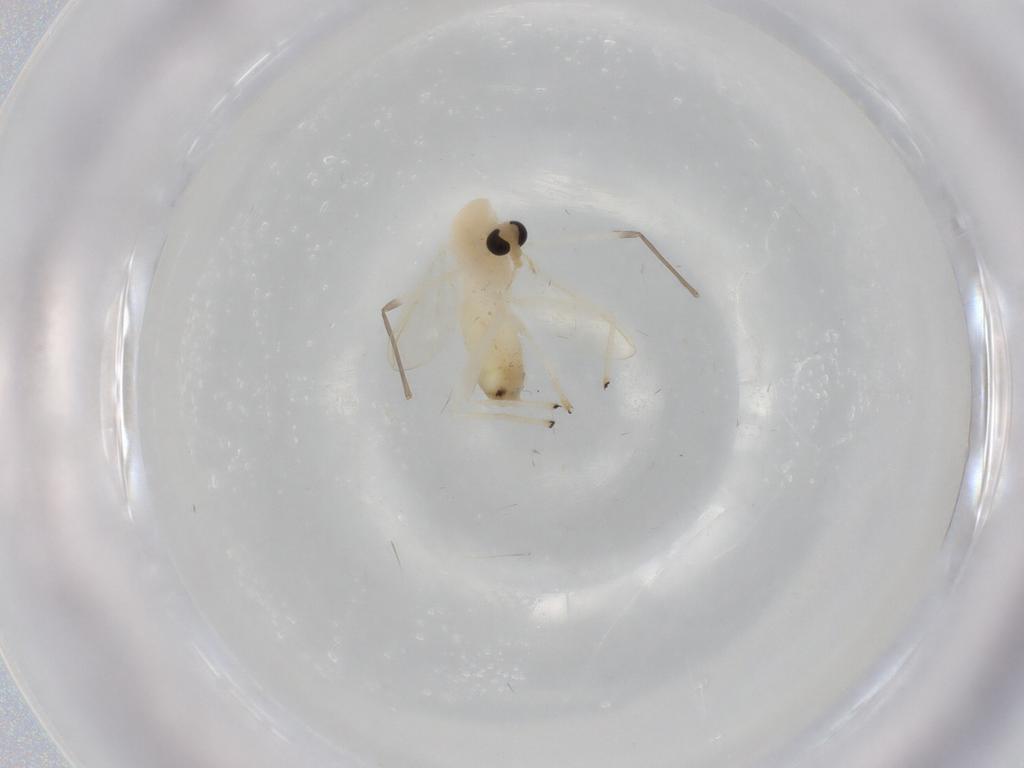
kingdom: Animalia
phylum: Arthropoda
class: Insecta
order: Diptera
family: Chironomidae
